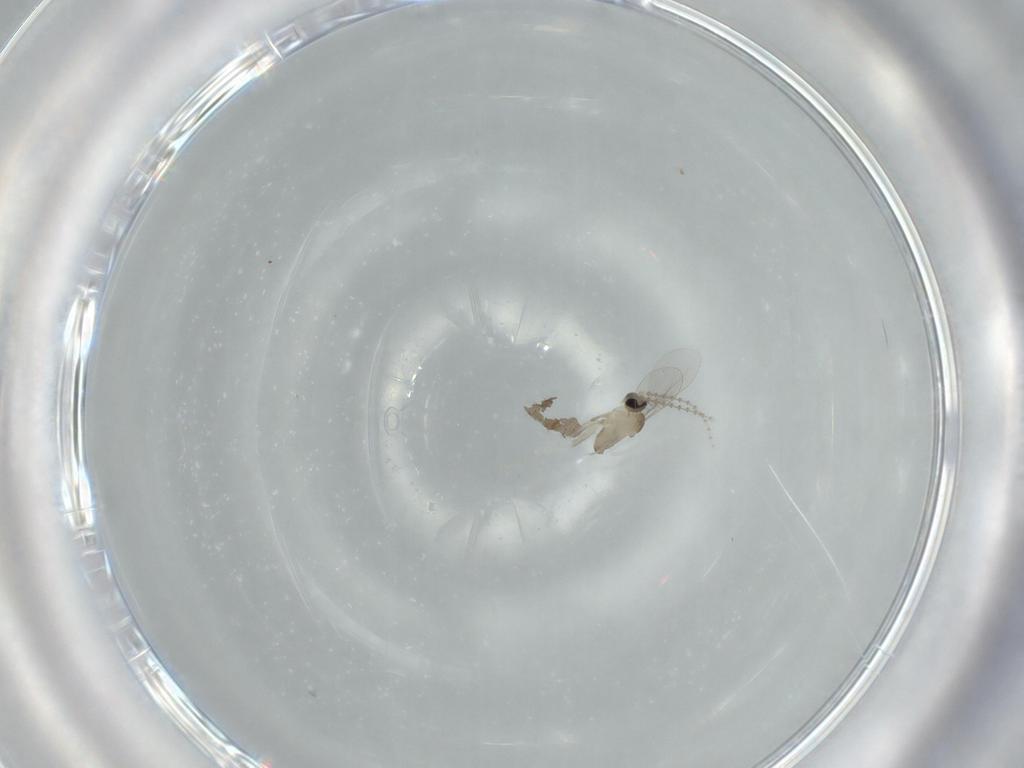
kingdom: Animalia
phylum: Arthropoda
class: Insecta
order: Diptera
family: Cecidomyiidae
